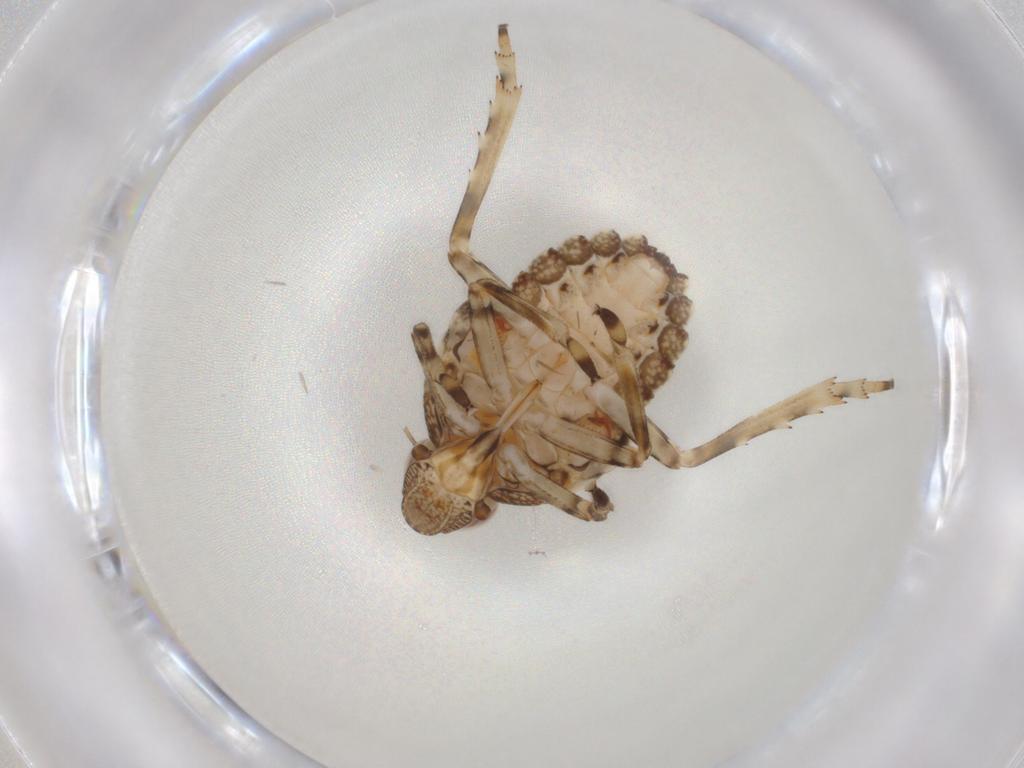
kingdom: Animalia
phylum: Arthropoda
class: Insecta
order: Hemiptera
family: Tropiduchidae
